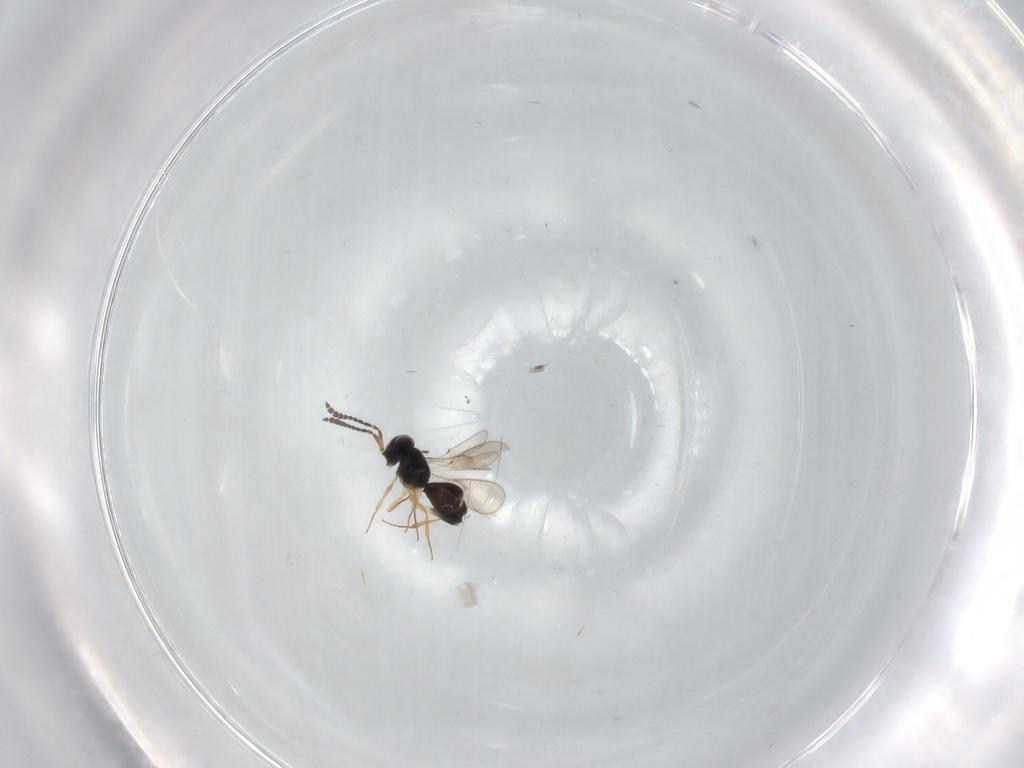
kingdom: Animalia
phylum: Arthropoda
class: Insecta
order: Hymenoptera
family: Scelionidae
